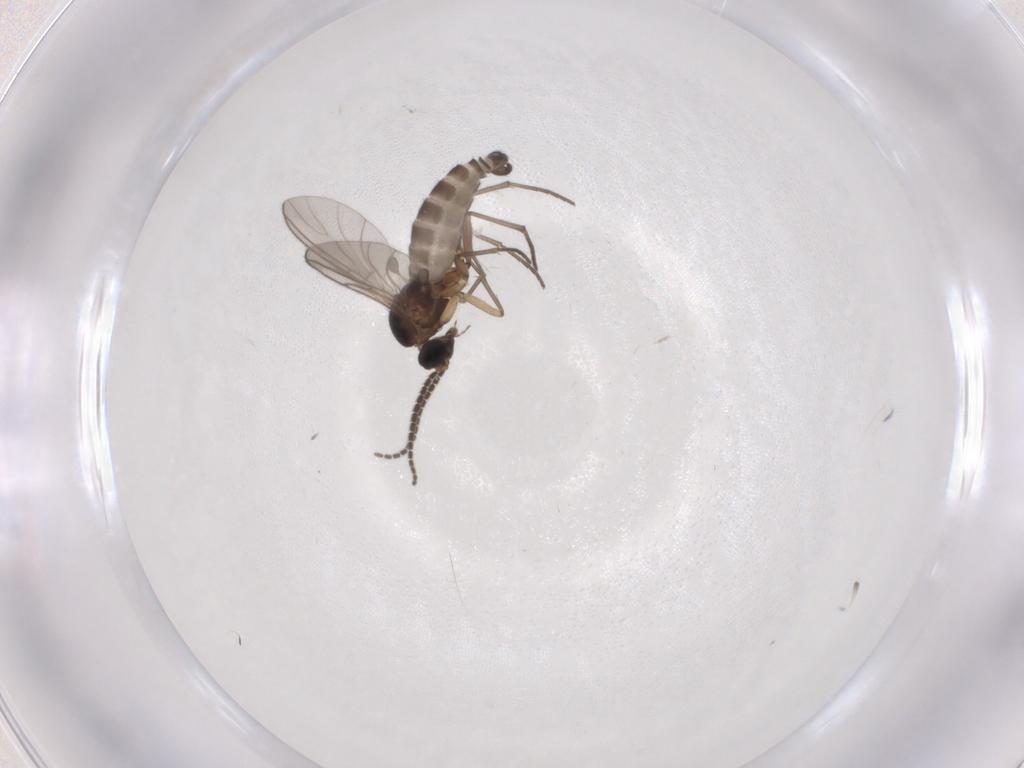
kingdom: Animalia
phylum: Arthropoda
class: Insecta
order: Diptera
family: Sciaridae
